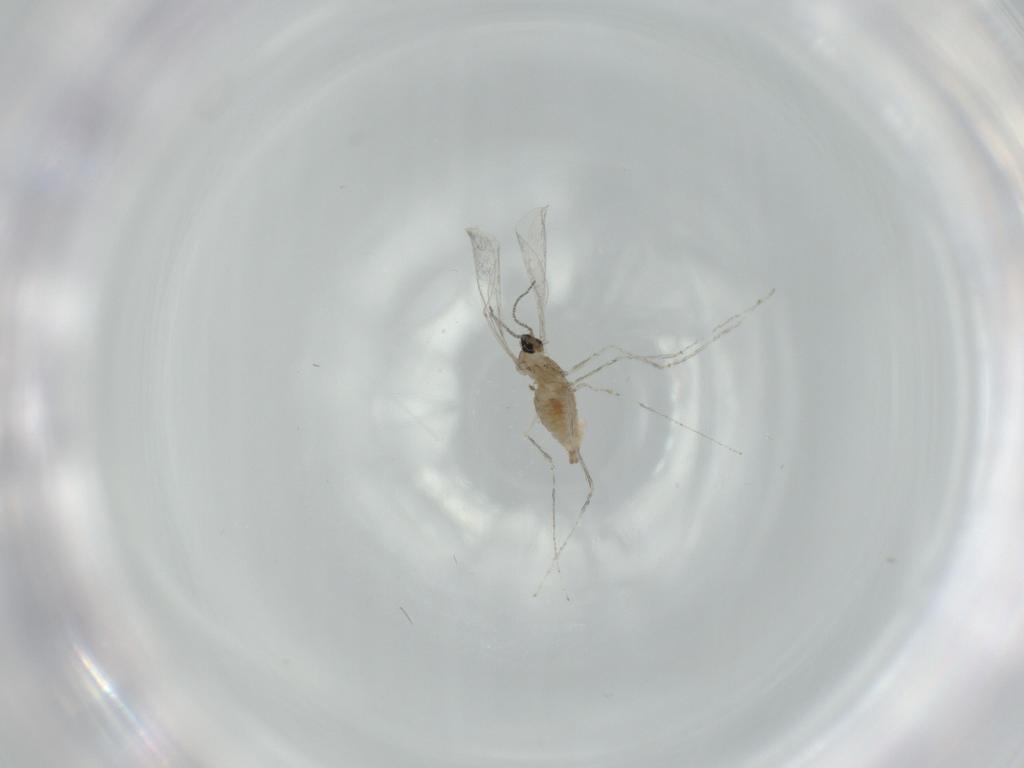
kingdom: Animalia
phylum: Arthropoda
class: Insecta
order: Diptera
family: Cecidomyiidae
